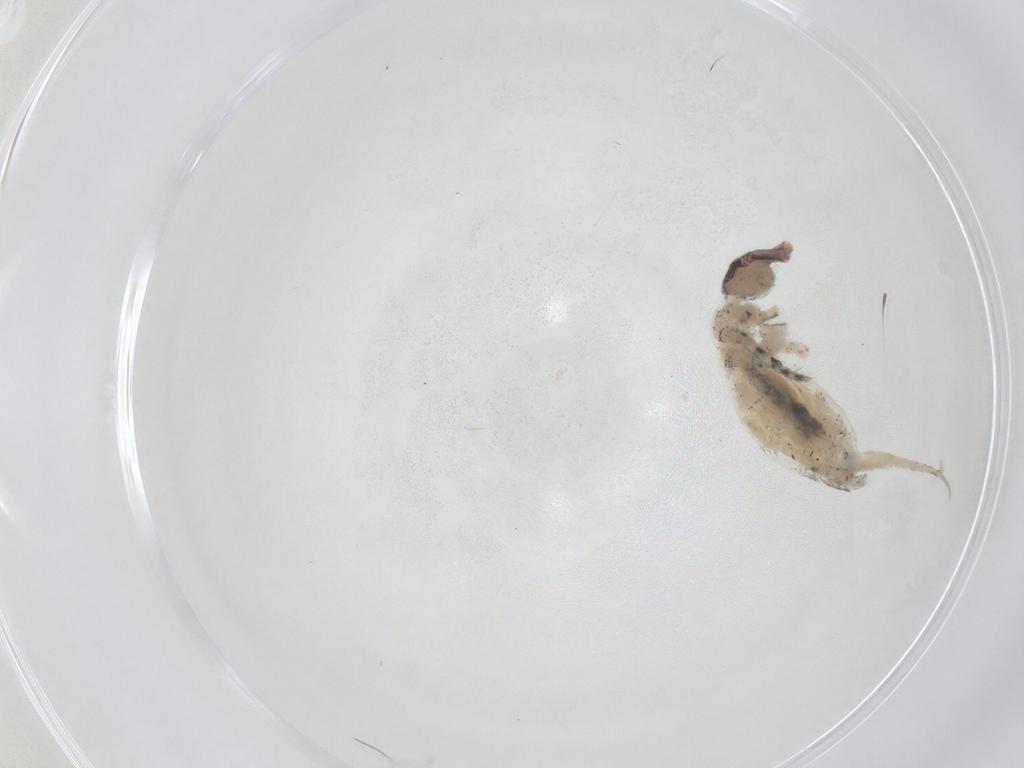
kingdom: Animalia
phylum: Arthropoda
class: Collembola
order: Entomobryomorpha
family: Entomobryidae
